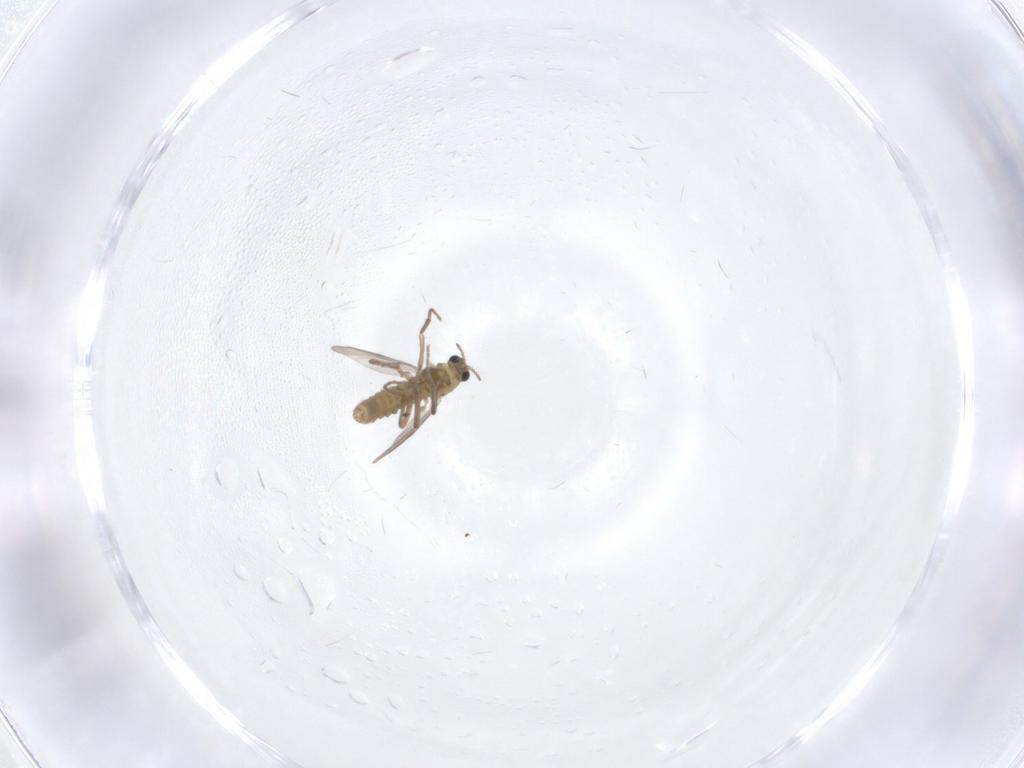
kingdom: Animalia
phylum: Arthropoda
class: Insecta
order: Diptera
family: Chironomidae
